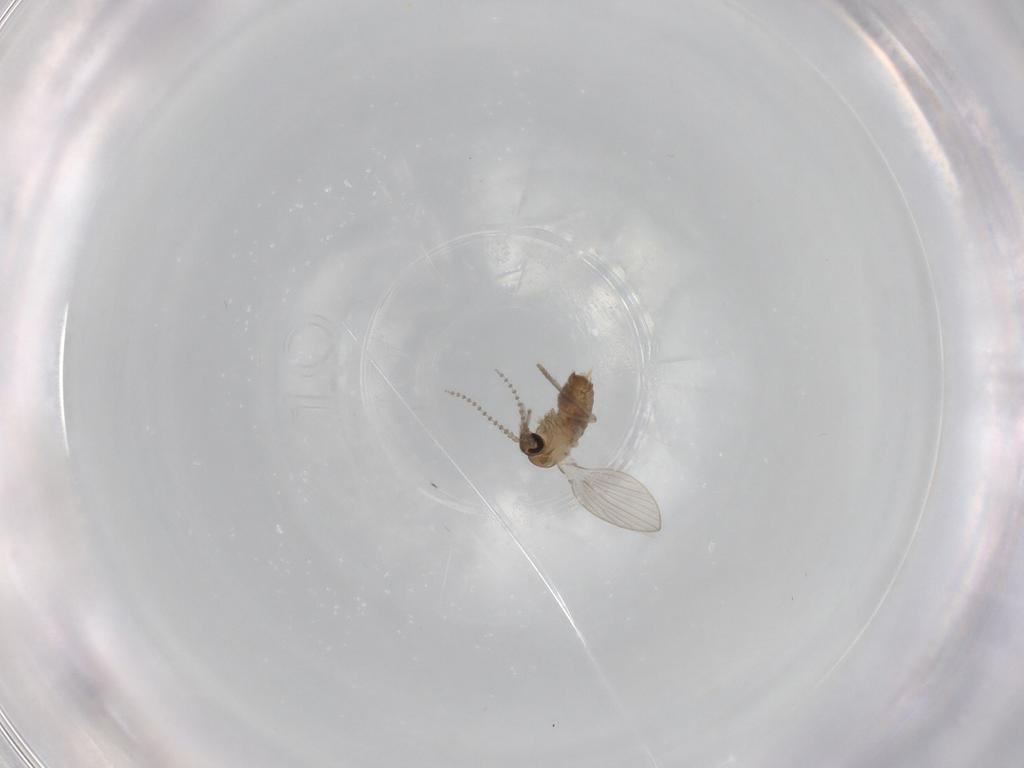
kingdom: Animalia
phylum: Arthropoda
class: Insecta
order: Diptera
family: Psychodidae
